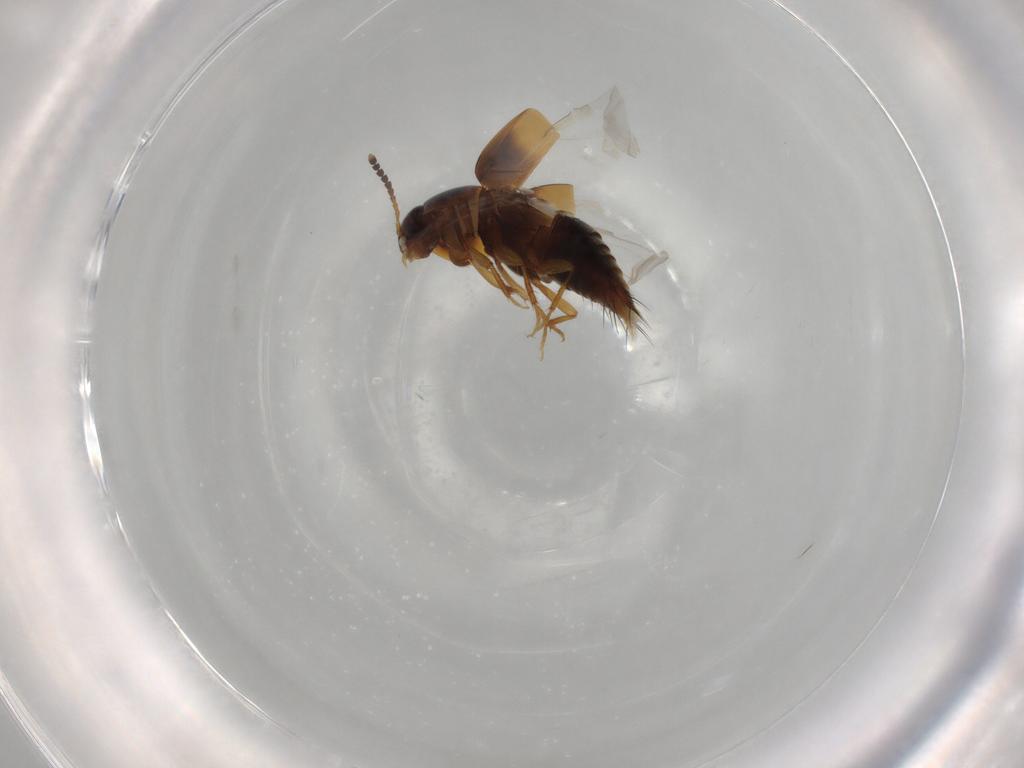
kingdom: Animalia
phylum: Arthropoda
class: Insecta
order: Coleoptera
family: Staphylinidae
